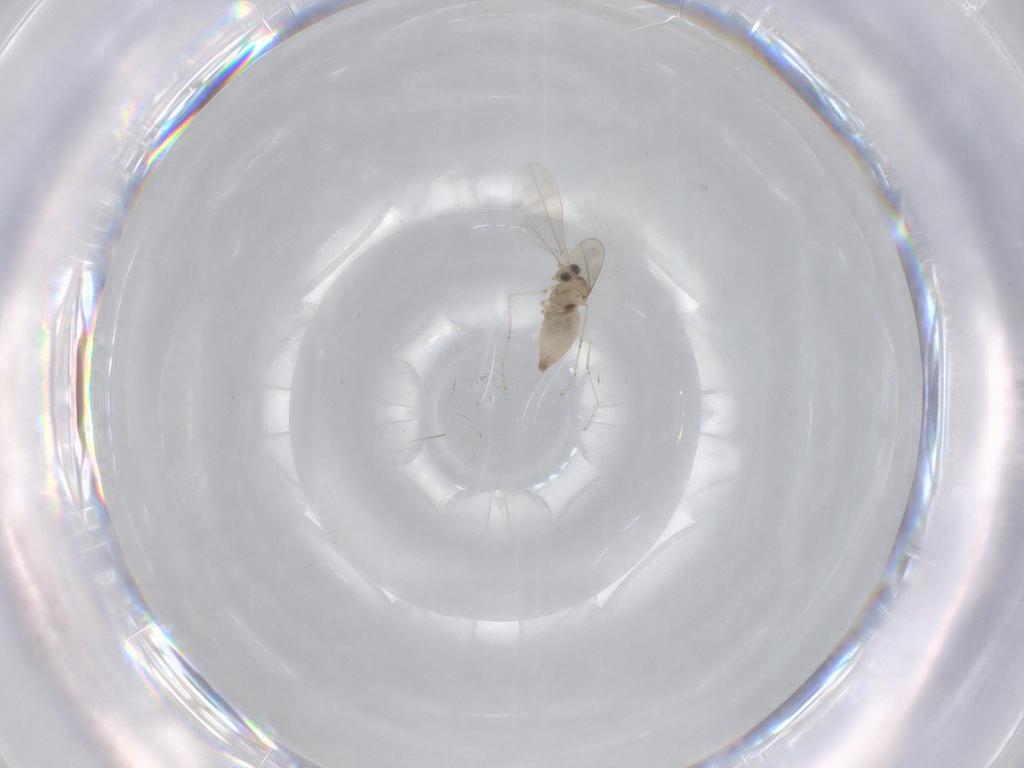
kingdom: Animalia
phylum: Arthropoda
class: Insecta
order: Diptera
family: Cecidomyiidae
